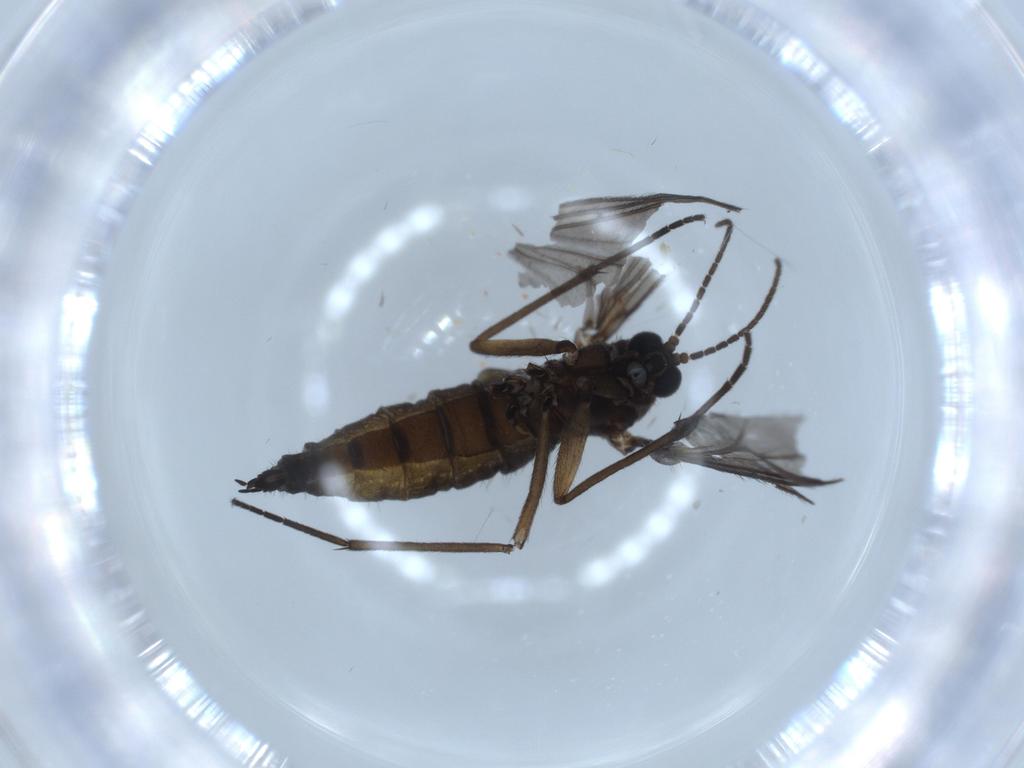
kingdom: Animalia
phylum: Arthropoda
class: Insecta
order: Diptera
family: Sciaridae
